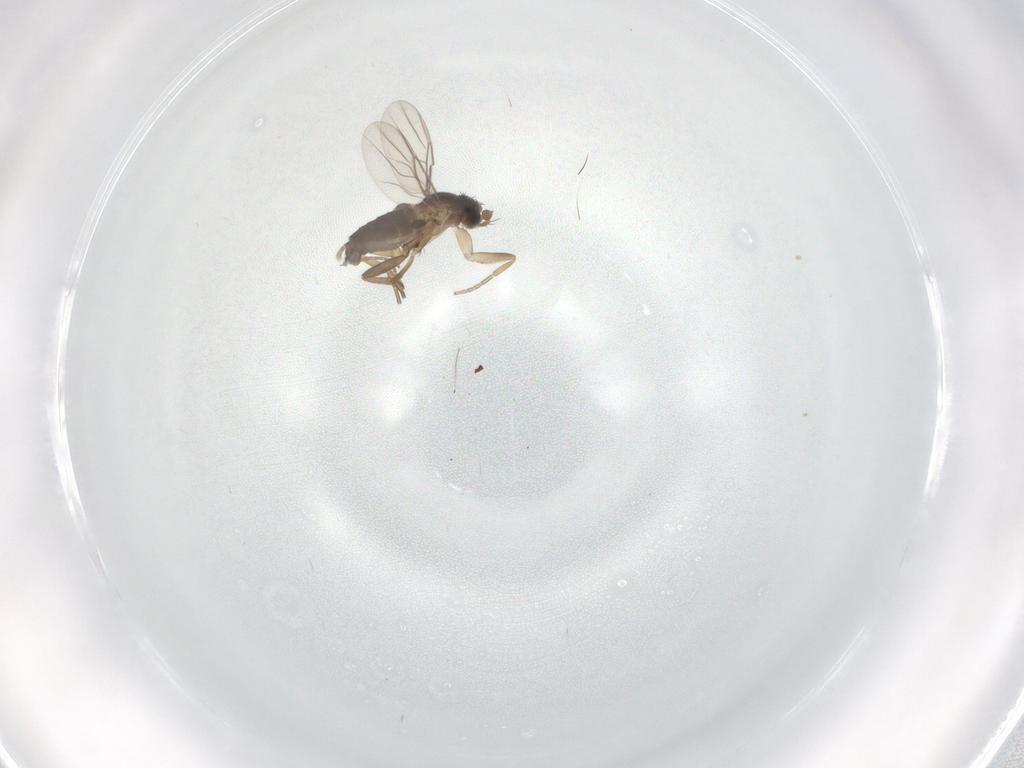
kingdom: Animalia
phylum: Arthropoda
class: Insecta
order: Diptera
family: Phoridae
